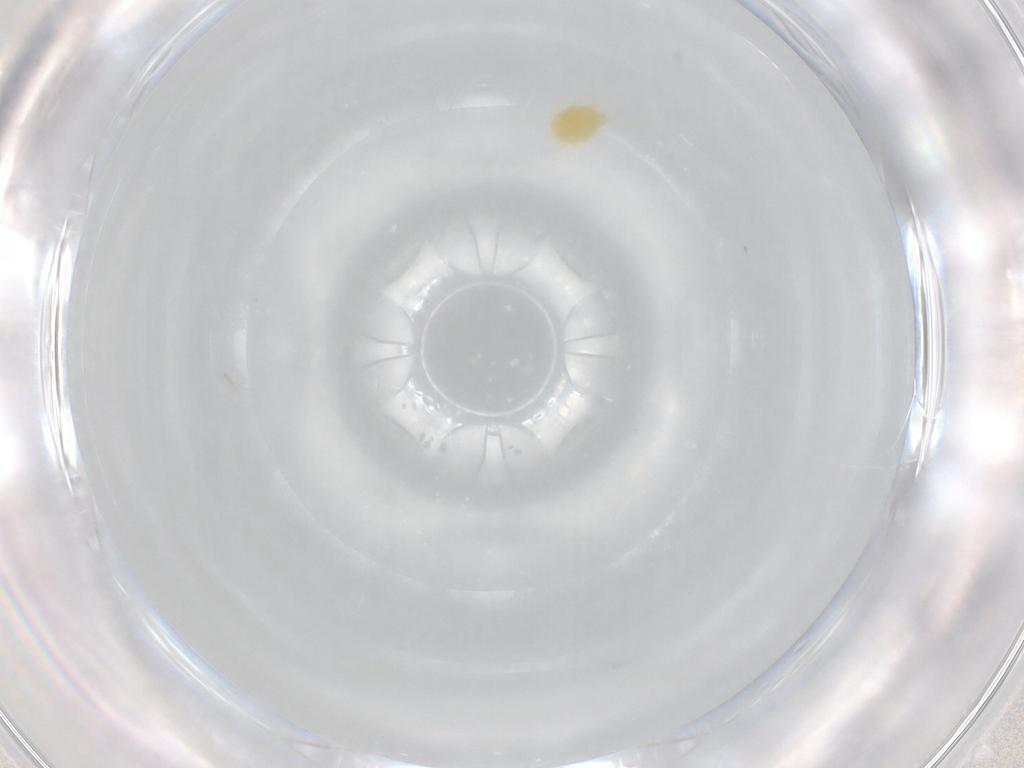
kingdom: Animalia
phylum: Arthropoda
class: Arachnida
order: Trombidiformes
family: Tetranychidae
